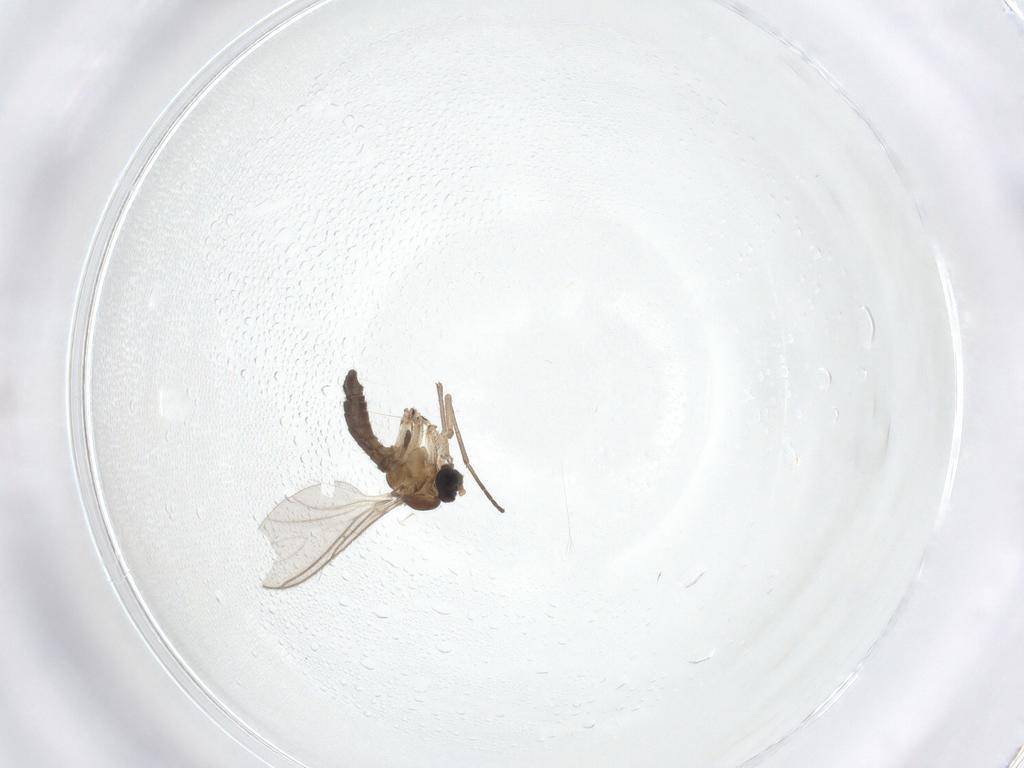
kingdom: Animalia
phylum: Arthropoda
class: Insecta
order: Diptera
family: Sciaridae
